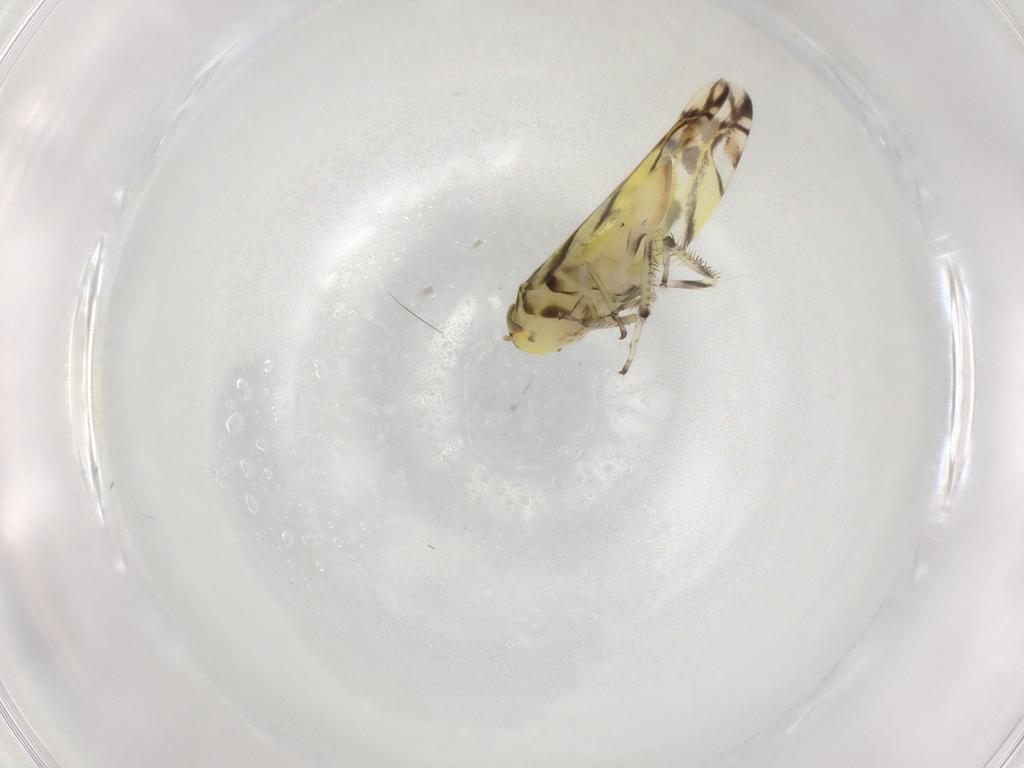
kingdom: Animalia
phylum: Arthropoda
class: Insecta
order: Hemiptera
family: Cicadellidae
